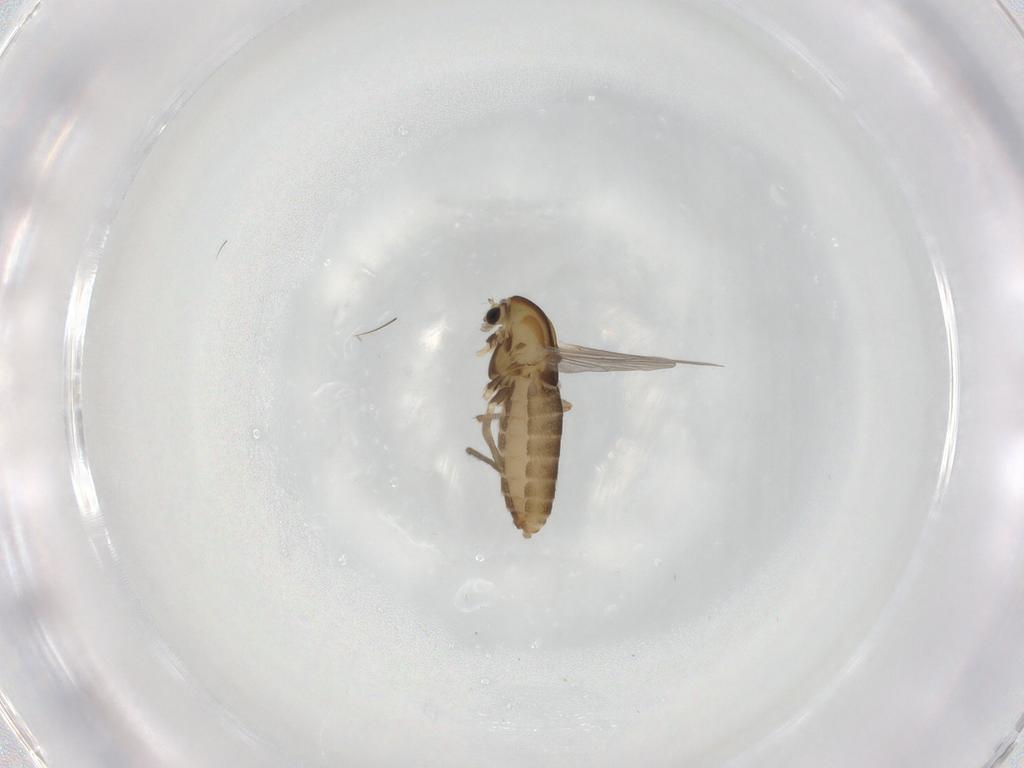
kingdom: Animalia
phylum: Arthropoda
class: Insecta
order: Diptera
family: Chironomidae
